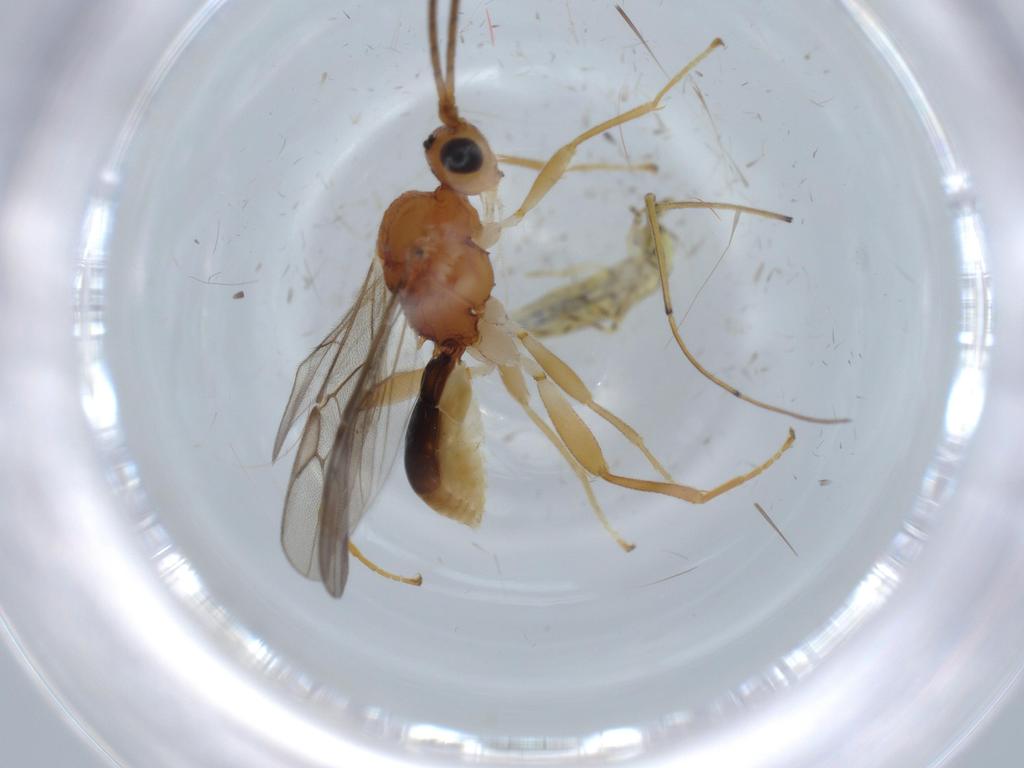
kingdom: Animalia
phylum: Arthropoda
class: Insecta
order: Hymenoptera
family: Braconidae
